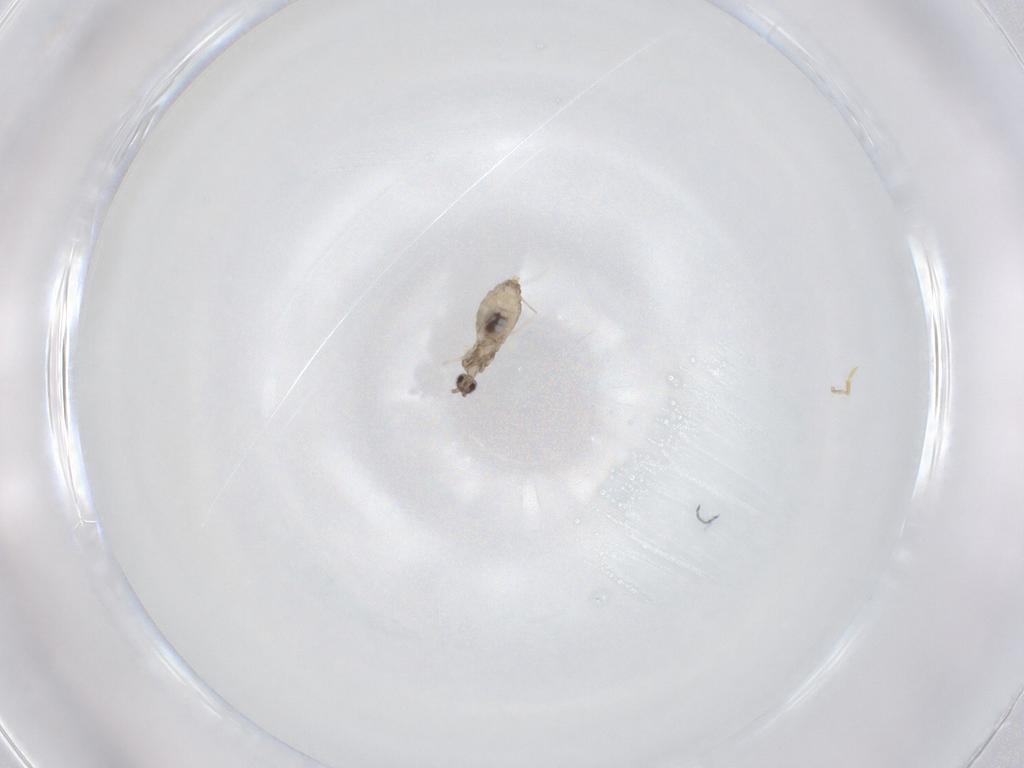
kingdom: Animalia
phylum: Arthropoda
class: Insecta
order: Diptera
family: Cecidomyiidae
